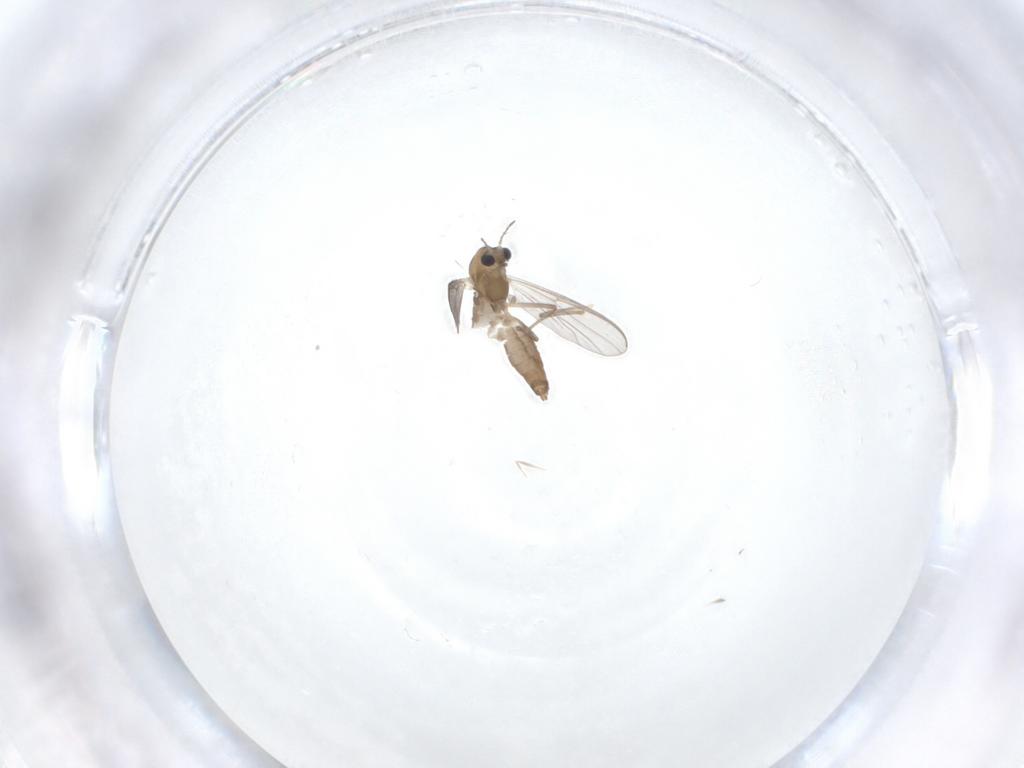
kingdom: Animalia
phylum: Arthropoda
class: Insecta
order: Diptera
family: Chironomidae
